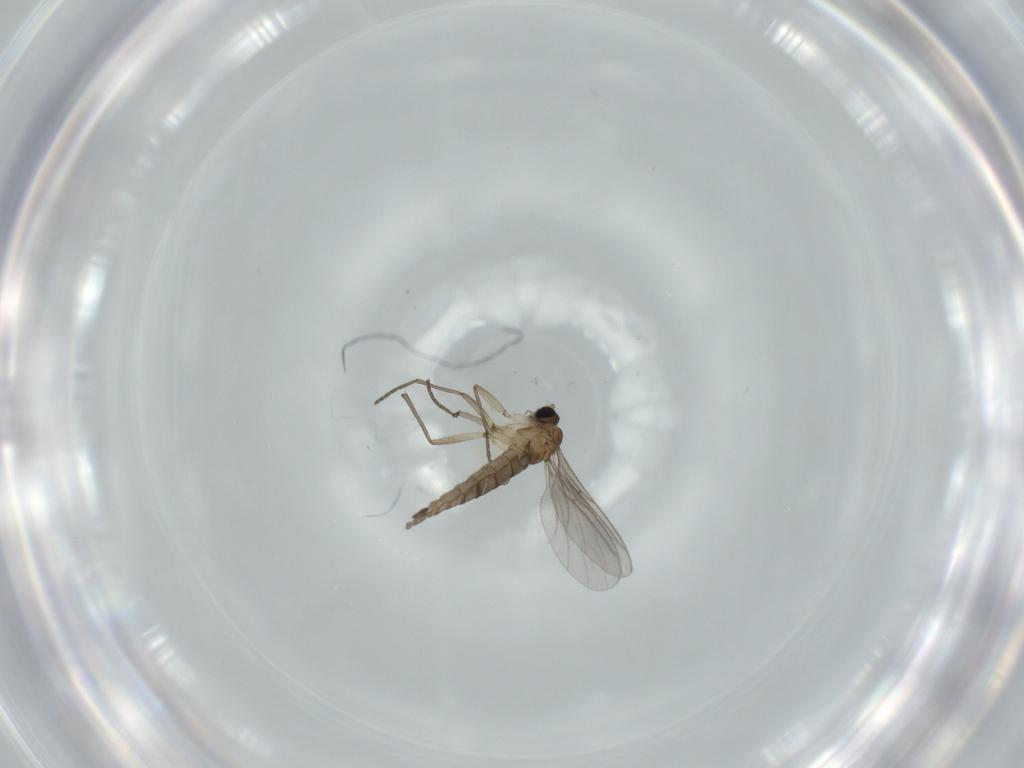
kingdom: Animalia
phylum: Arthropoda
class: Insecta
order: Diptera
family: Sciaridae
